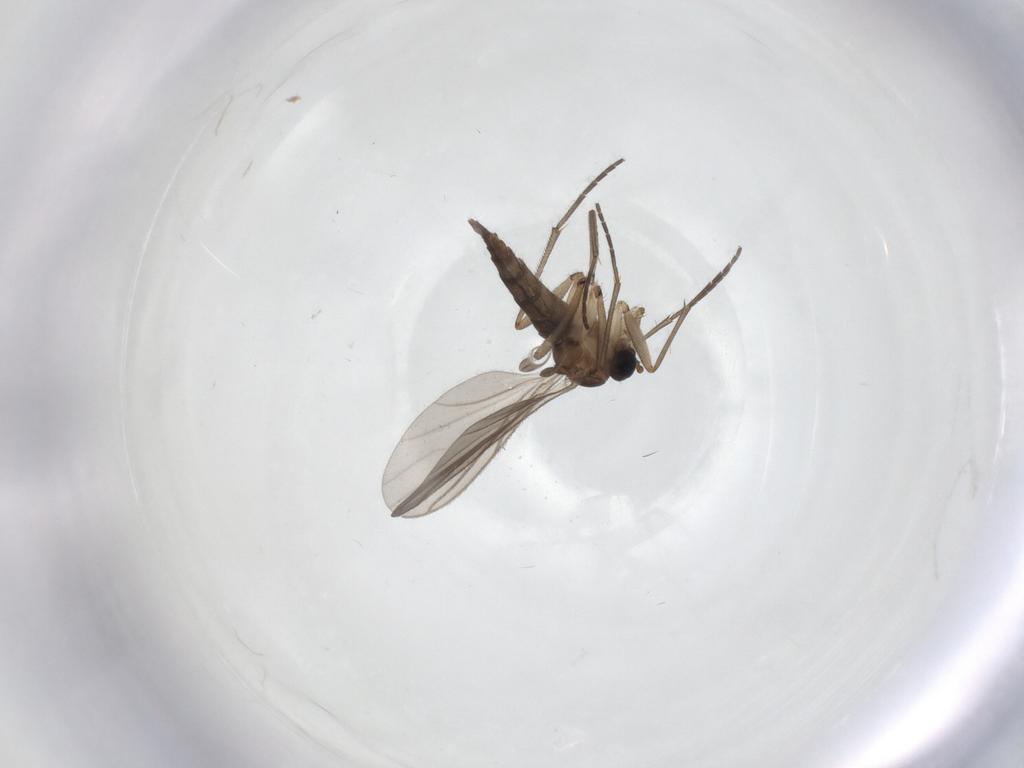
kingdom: Animalia
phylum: Arthropoda
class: Insecta
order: Diptera
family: Sciaridae
